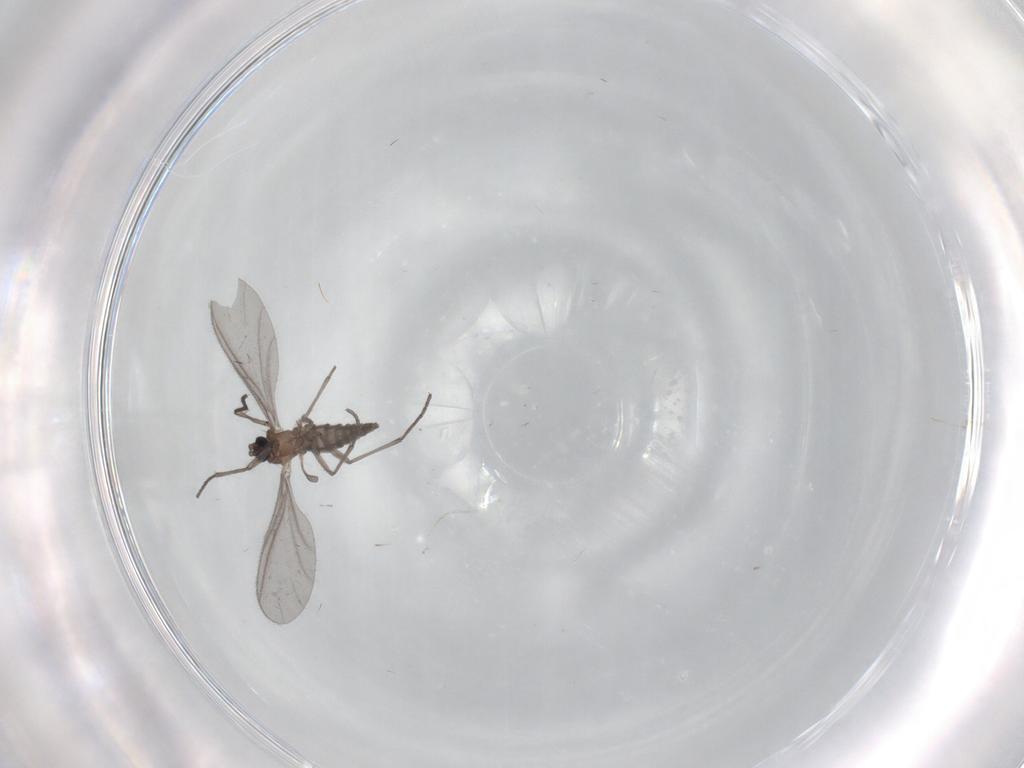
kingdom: Animalia
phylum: Arthropoda
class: Insecta
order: Diptera
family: Sciaridae
